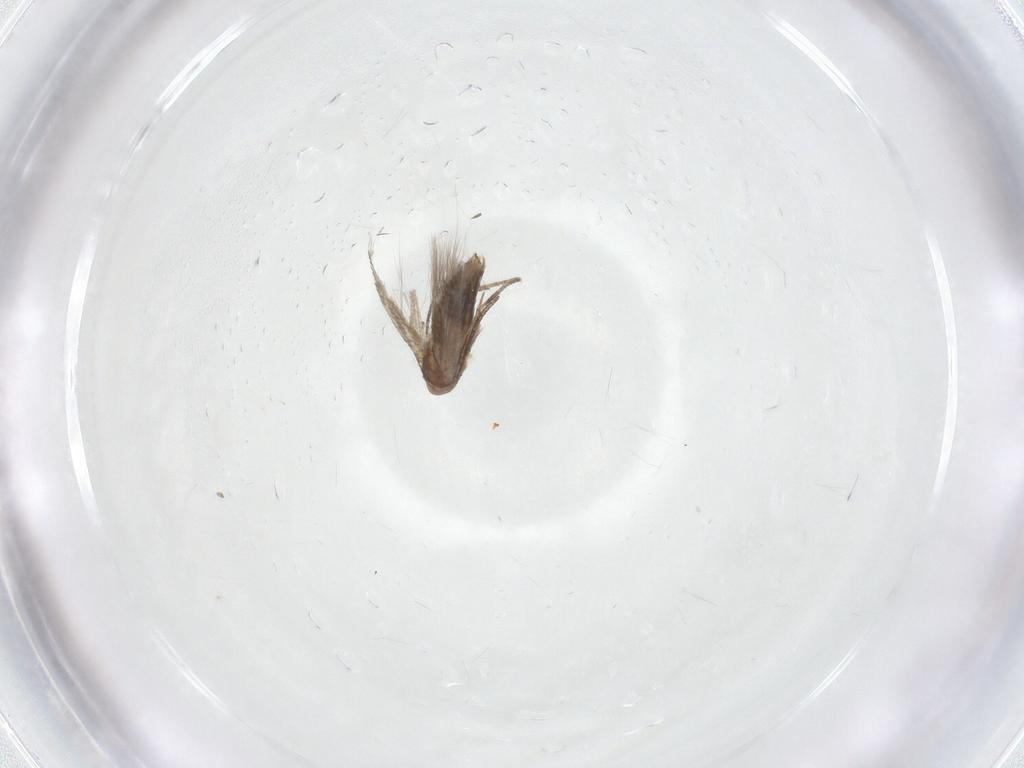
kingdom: Animalia
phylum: Arthropoda
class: Insecta
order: Lepidoptera
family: Lyonetiidae
